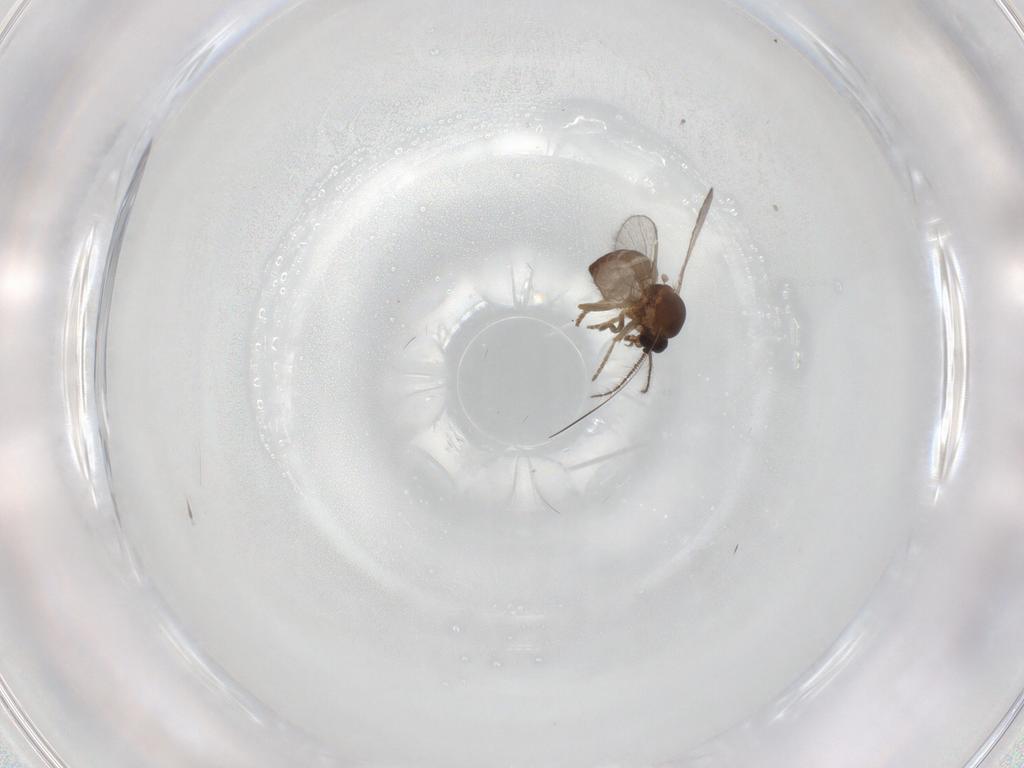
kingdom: Animalia
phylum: Arthropoda
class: Insecta
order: Diptera
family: Ceratopogonidae
